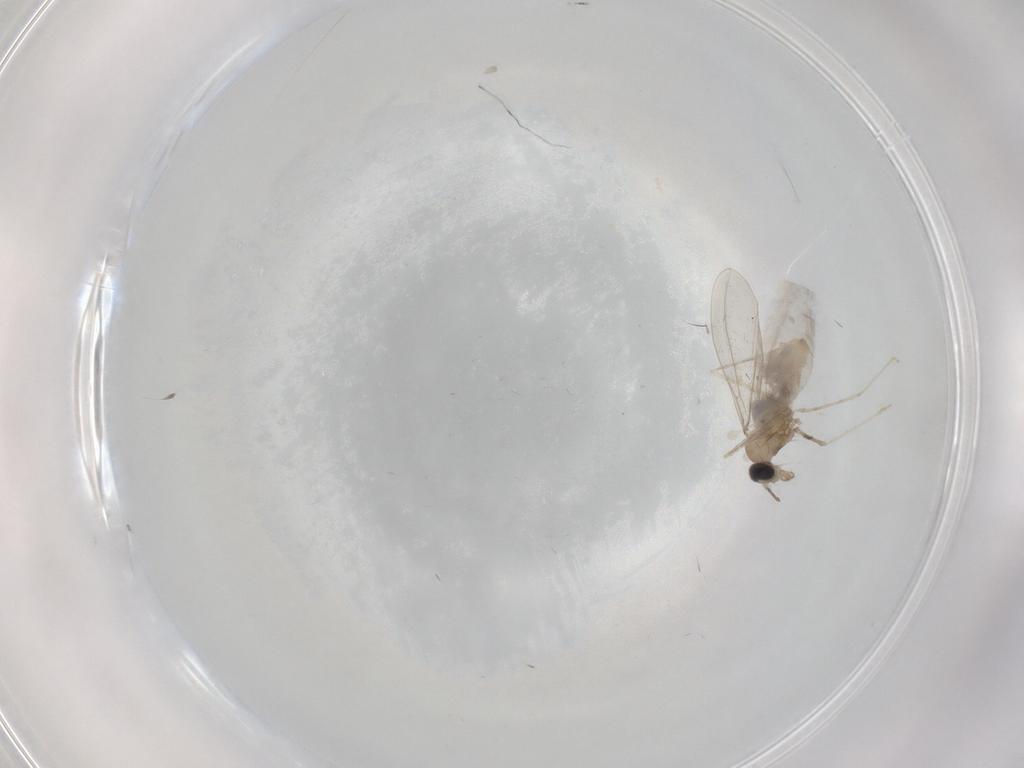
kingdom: Animalia
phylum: Arthropoda
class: Insecta
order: Diptera
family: Cecidomyiidae
